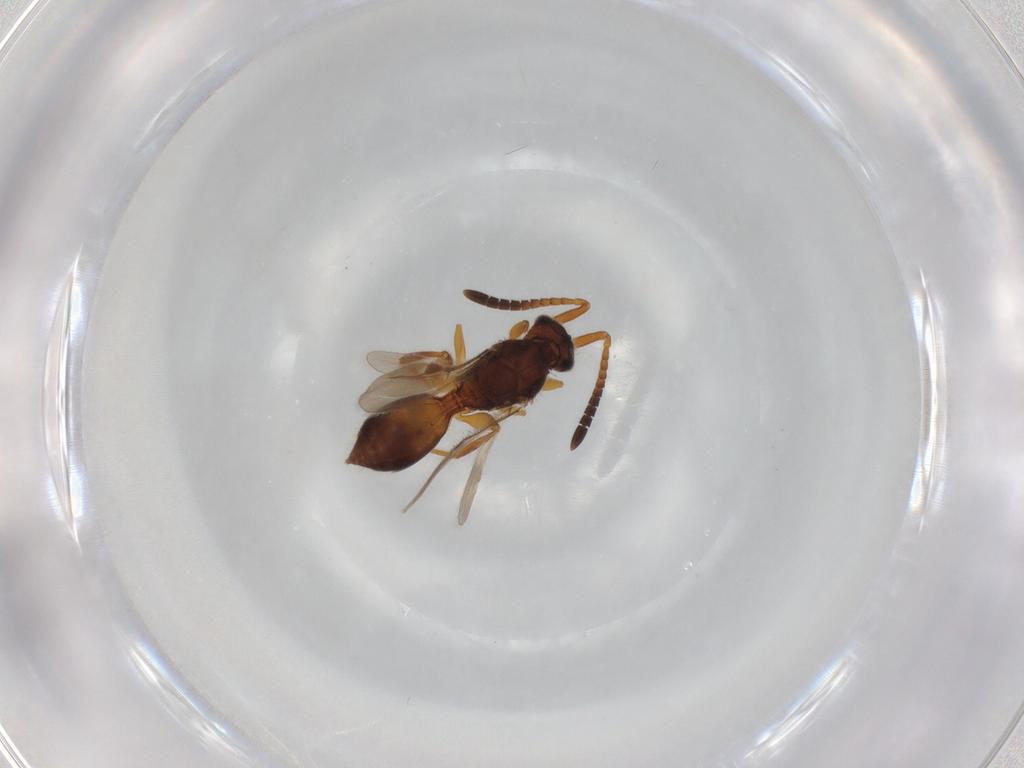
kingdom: Animalia
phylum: Arthropoda
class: Insecta
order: Hymenoptera
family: Megaspilidae
